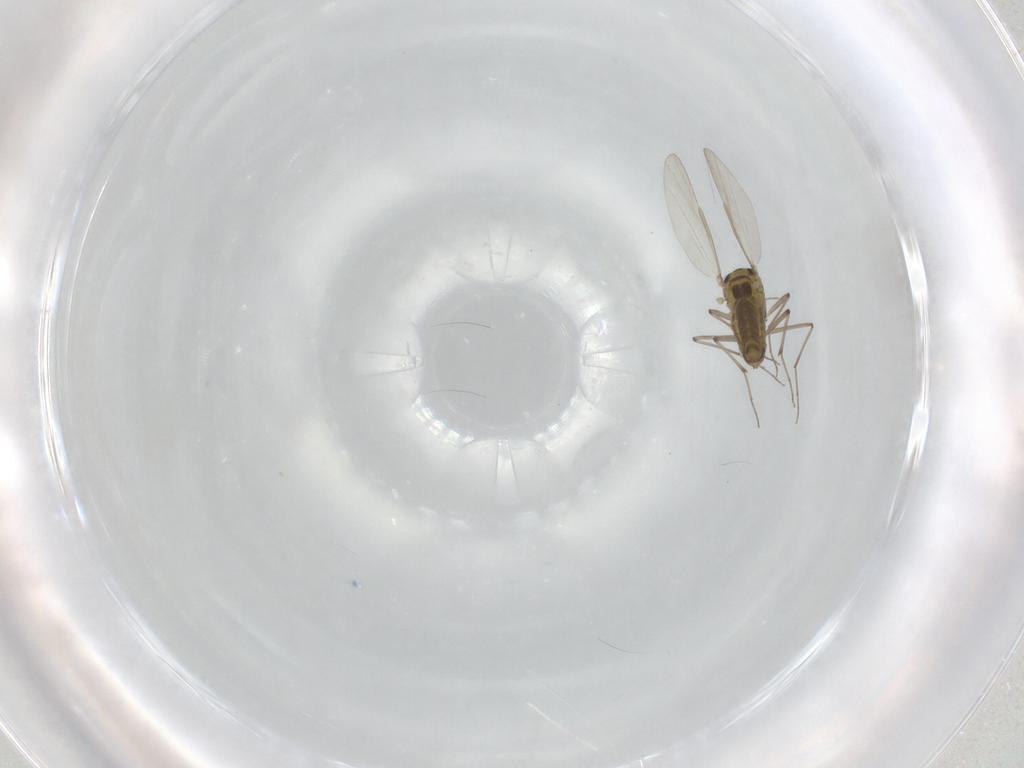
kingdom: Animalia
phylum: Arthropoda
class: Insecta
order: Diptera
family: Chironomidae
